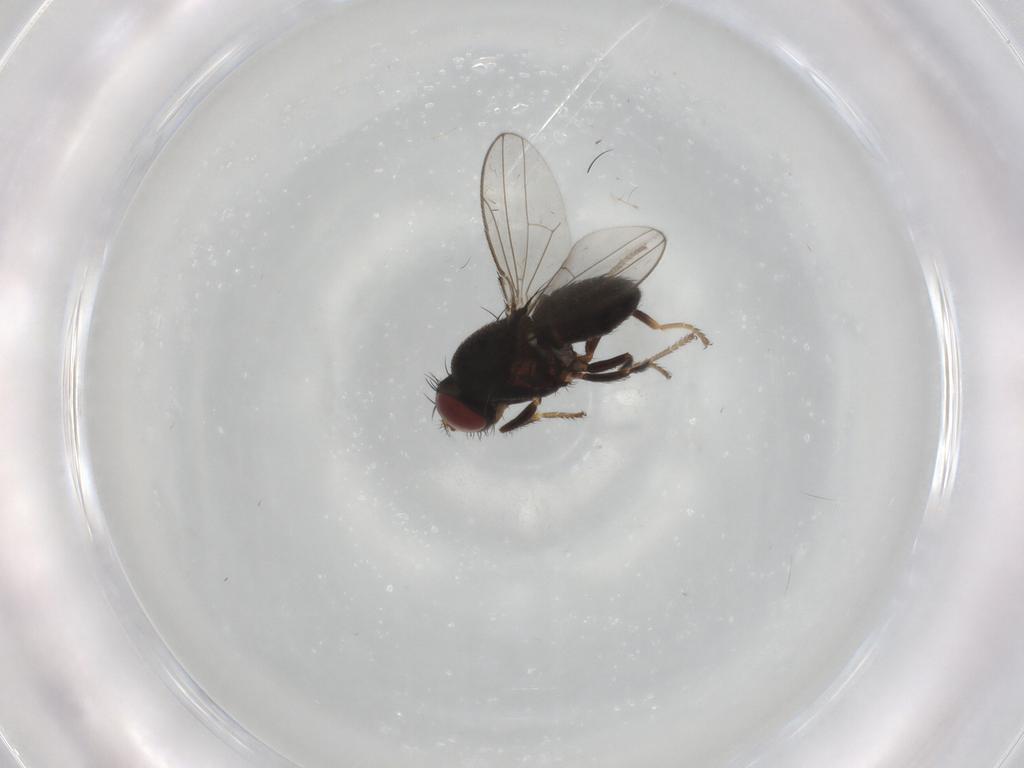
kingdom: Animalia
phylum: Arthropoda
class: Insecta
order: Diptera
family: Ephydridae
